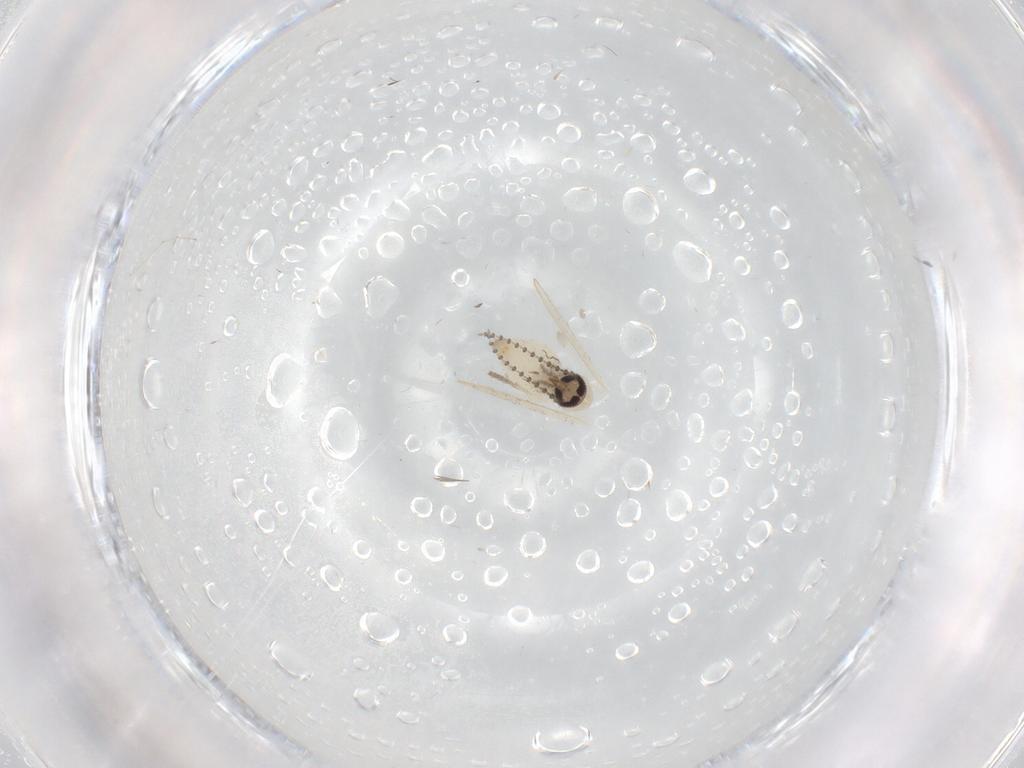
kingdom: Animalia
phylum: Arthropoda
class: Insecta
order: Diptera
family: Psychodidae
